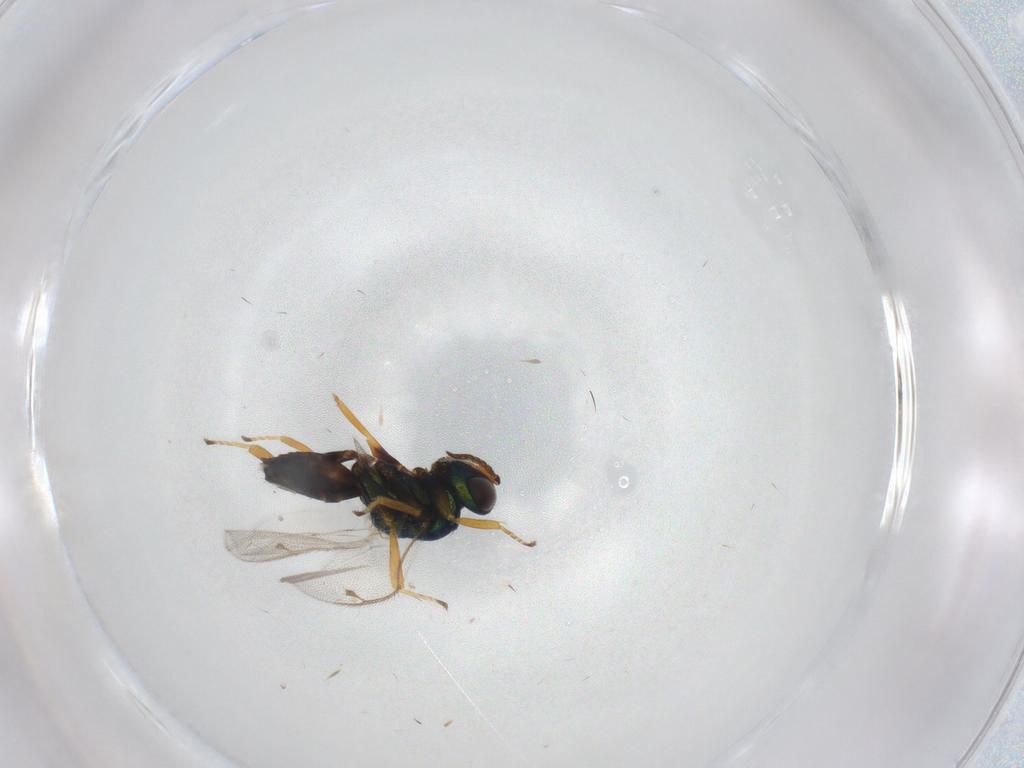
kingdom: Animalia
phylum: Arthropoda
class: Insecta
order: Hymenoptera
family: Pteromalidae
